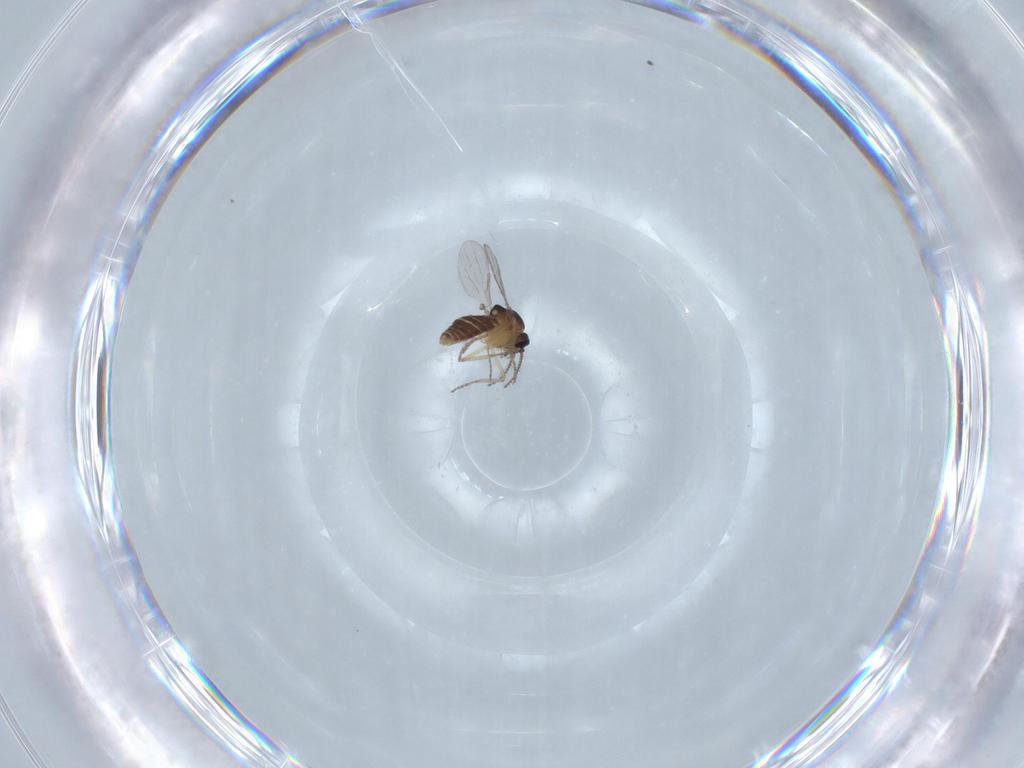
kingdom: Animalia
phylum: Arthropoda
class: Insecta
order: Diptera
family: Ceratopogonidae
